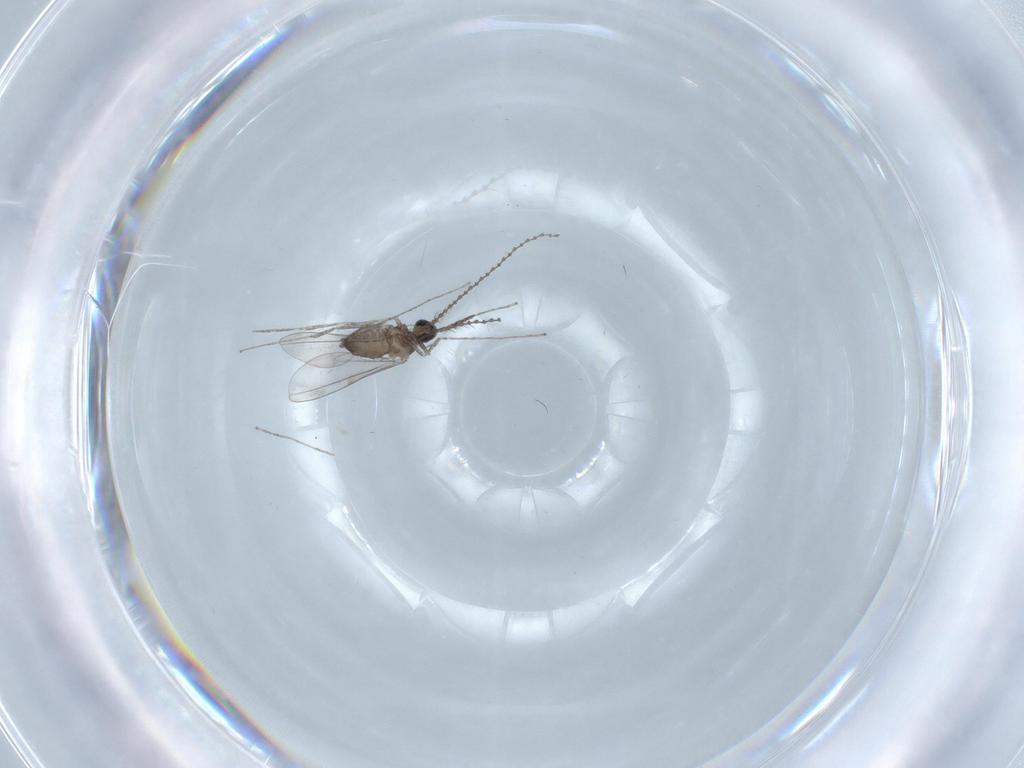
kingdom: Animalia
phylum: Arthropoda
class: Insecta
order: Diptera
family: Cecidomyiidae
